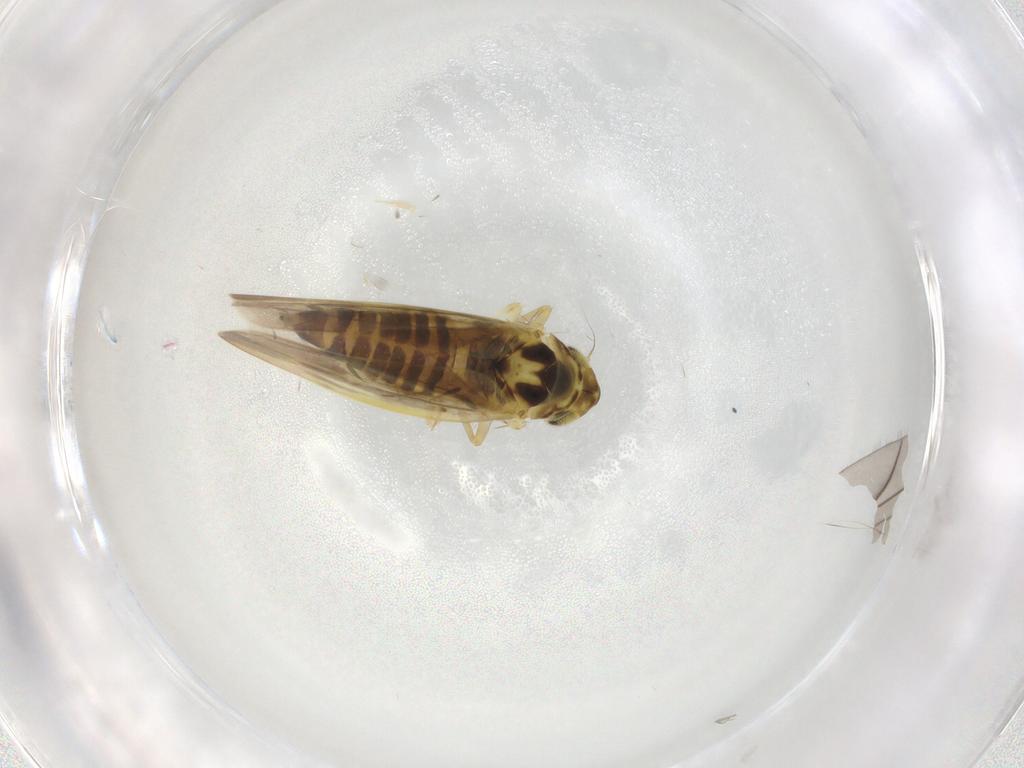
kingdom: Animalia
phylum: Arthropoda
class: Insecta
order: Hemiptera
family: Cicadellidae
